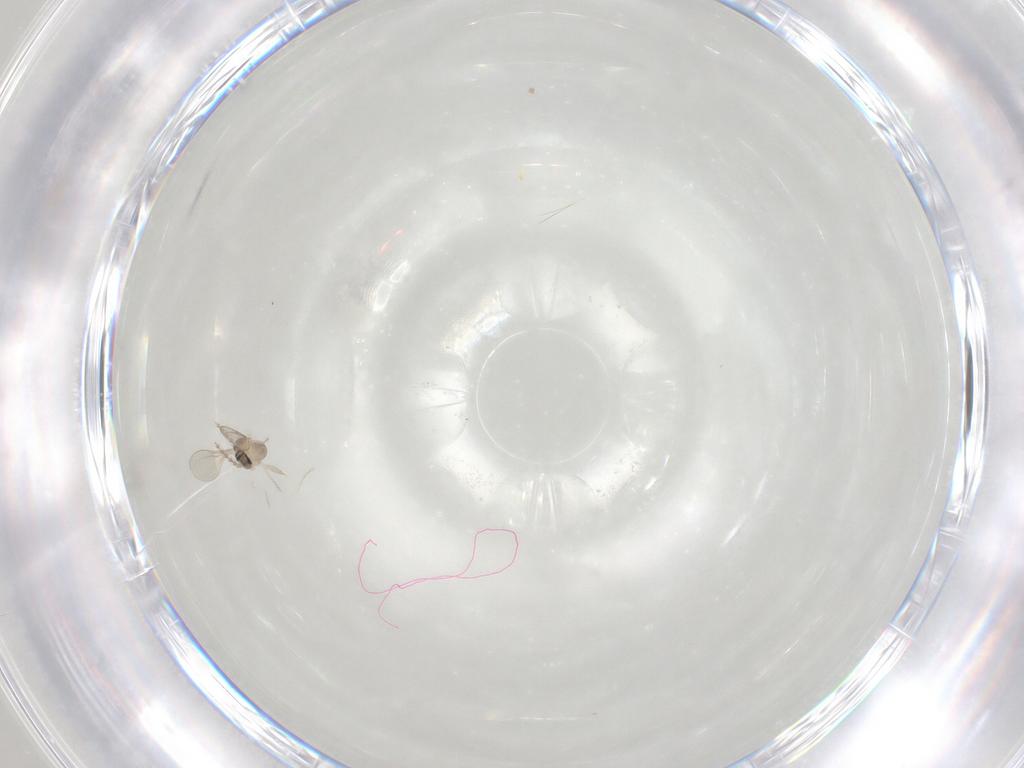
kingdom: Animalia
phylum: Arthropoda
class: Insecta
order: Diptera
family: Cecidomyiidae
